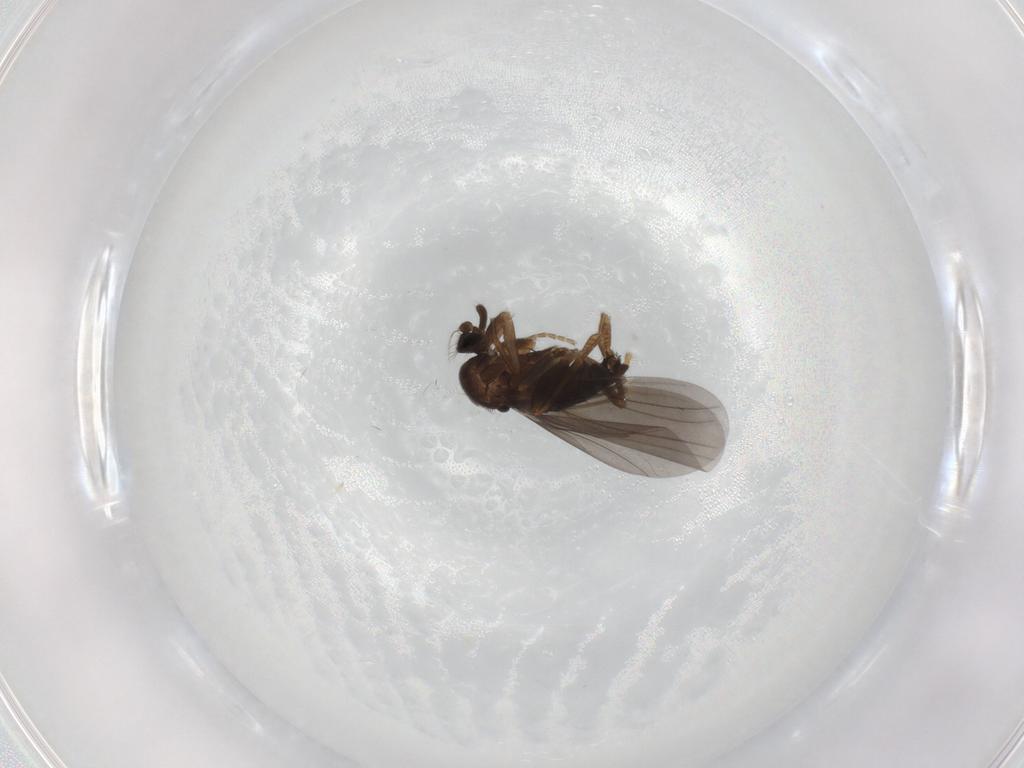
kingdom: Animalia
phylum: Arthropoda
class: Insecta
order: Diptera
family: Phoridae
